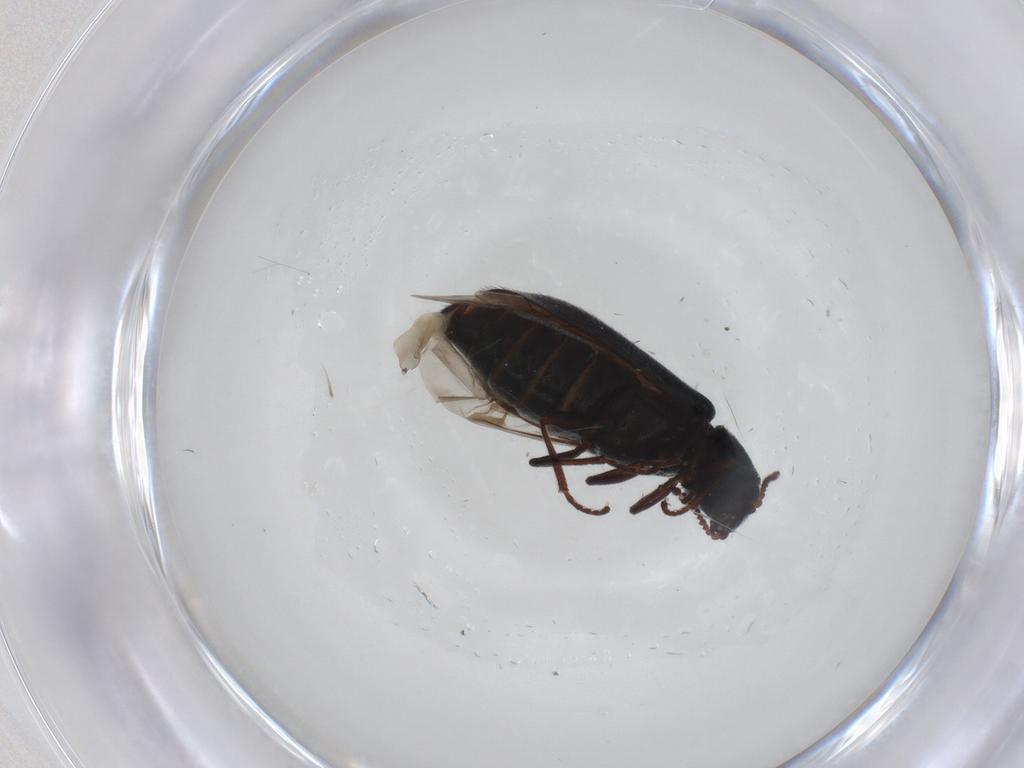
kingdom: Animalia
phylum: Arthropoda
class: Insecta
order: Coleoptera
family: Melyridae
